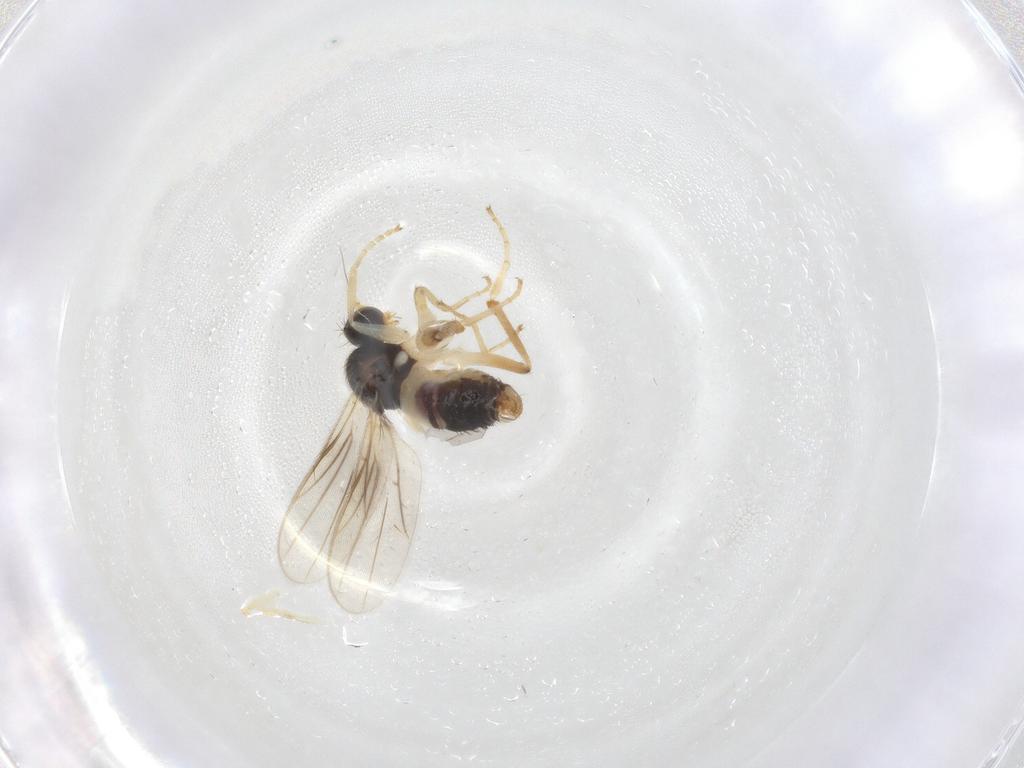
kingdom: Animalia
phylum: Arthropoda
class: Insecta
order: Diptera
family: Hybotidae
